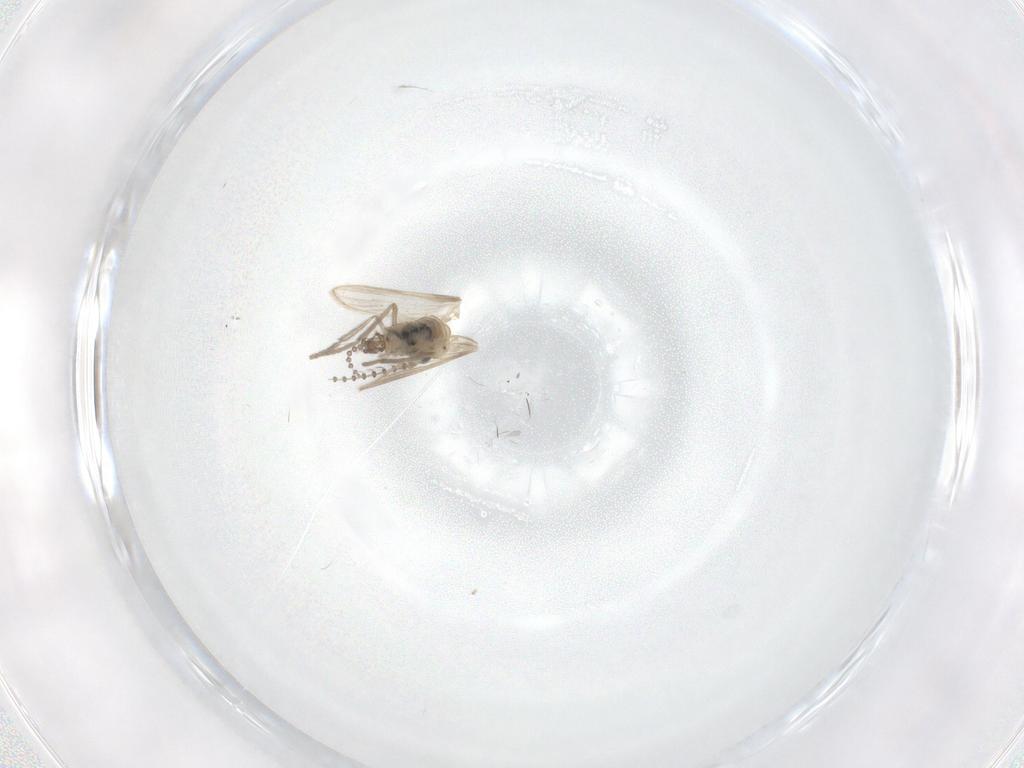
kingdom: Animalia
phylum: Arthropoda
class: Insecta
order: Diptera
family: Psychodidae
